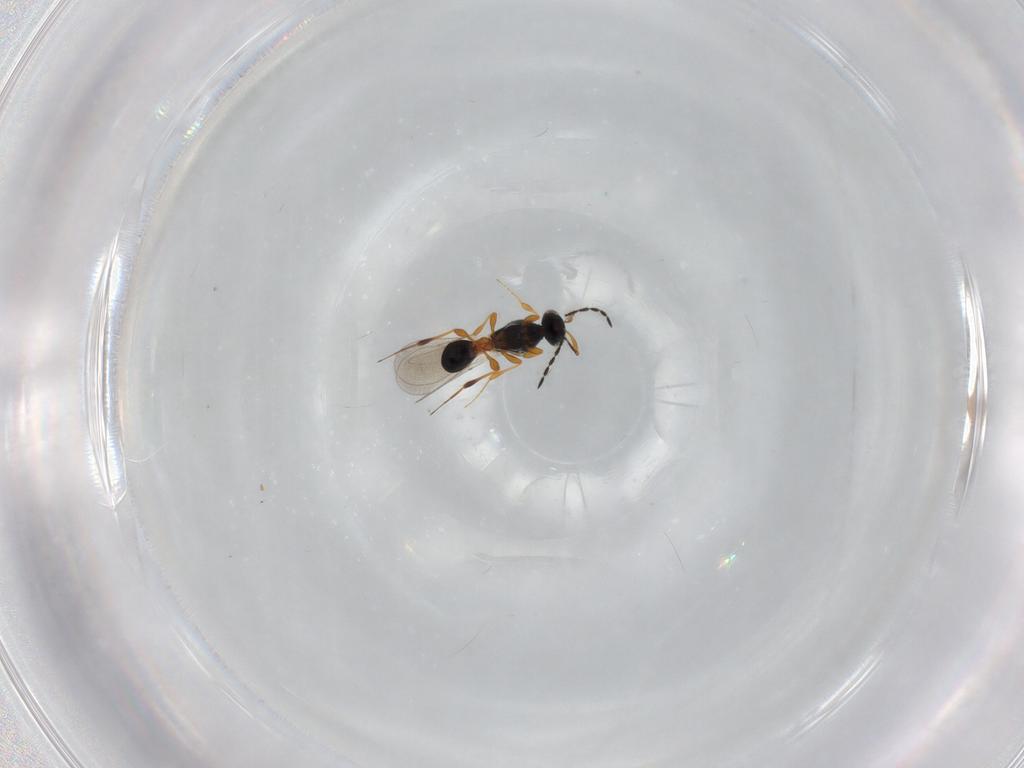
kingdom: Animalia
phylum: Arthropoda
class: Insecta
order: Hymenoptera
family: Platygastridae
